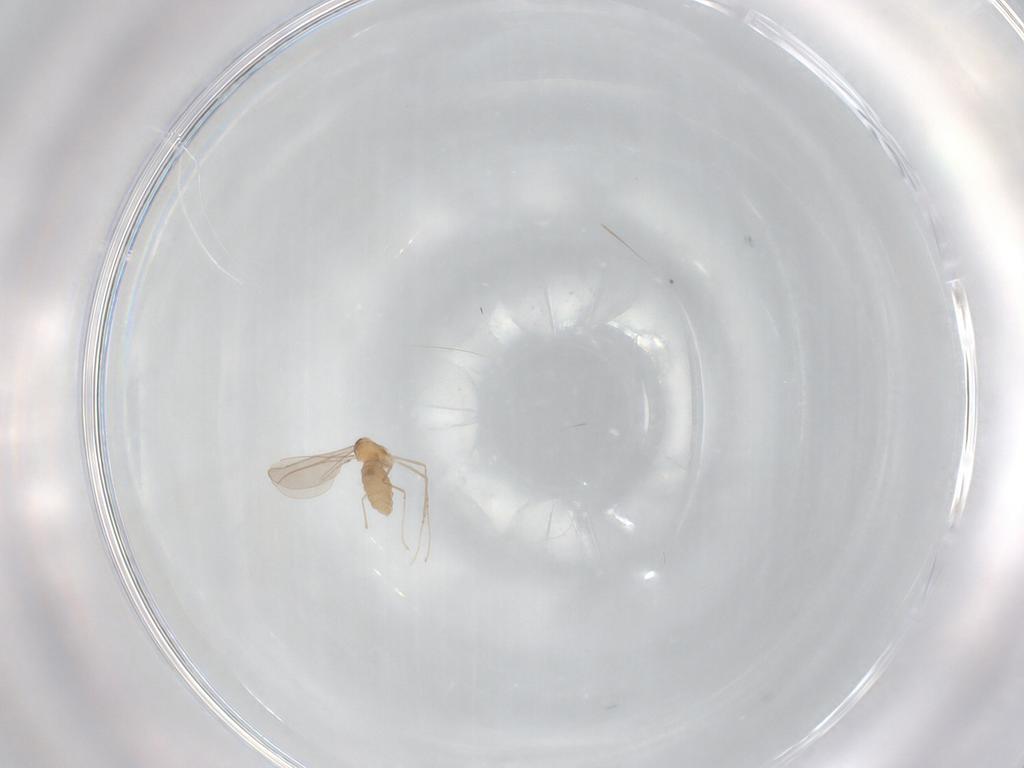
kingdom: Animalia
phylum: Arthropoda
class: Insecta
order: Diptera
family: Cecidomyiidae
